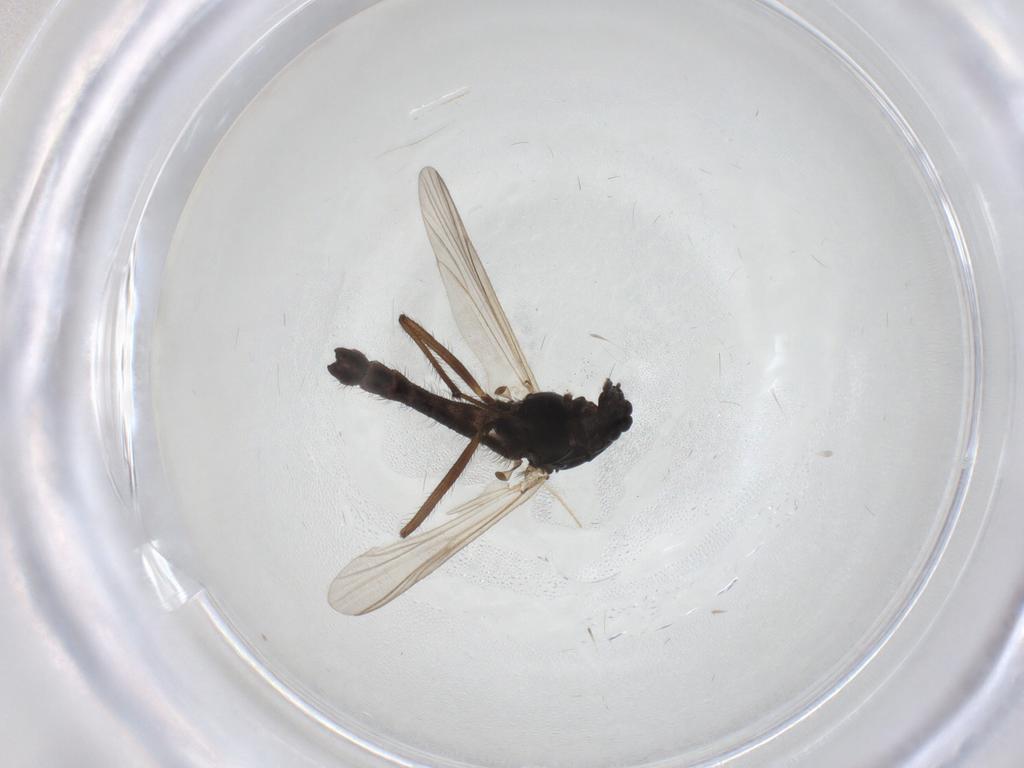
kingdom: Animalia
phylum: Arthropoda
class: Insecta
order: Diptera
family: Chironomidae
